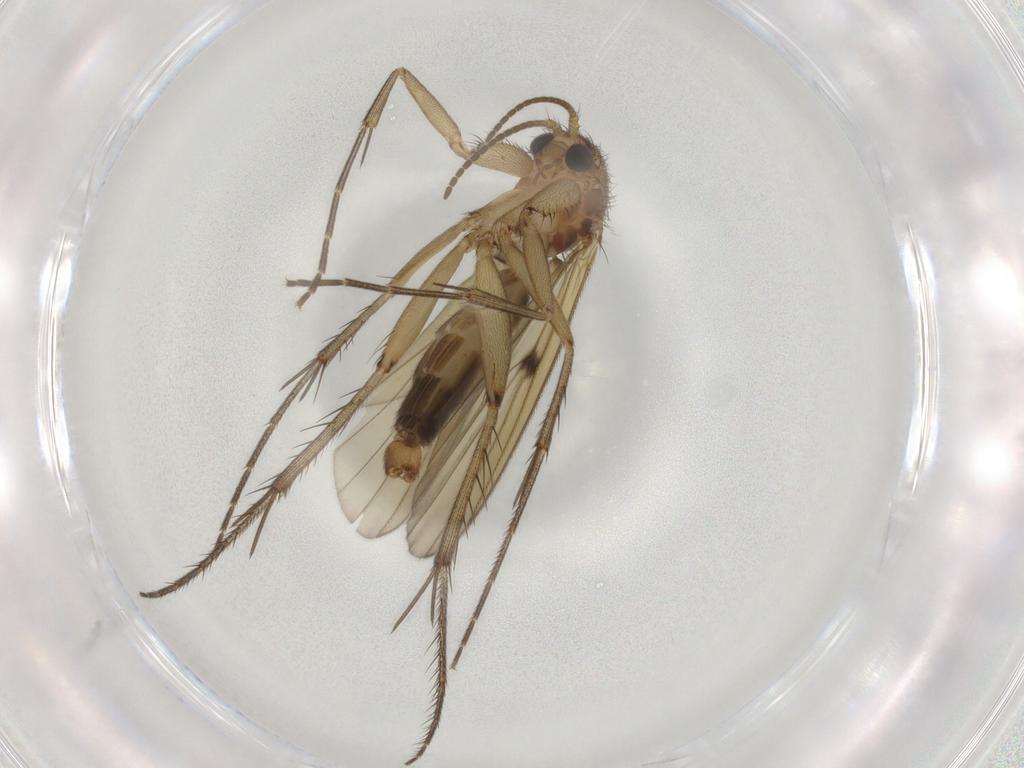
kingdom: Animalia
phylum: Arthropoda
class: Insecta
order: Diptera
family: Mycetophilidae
